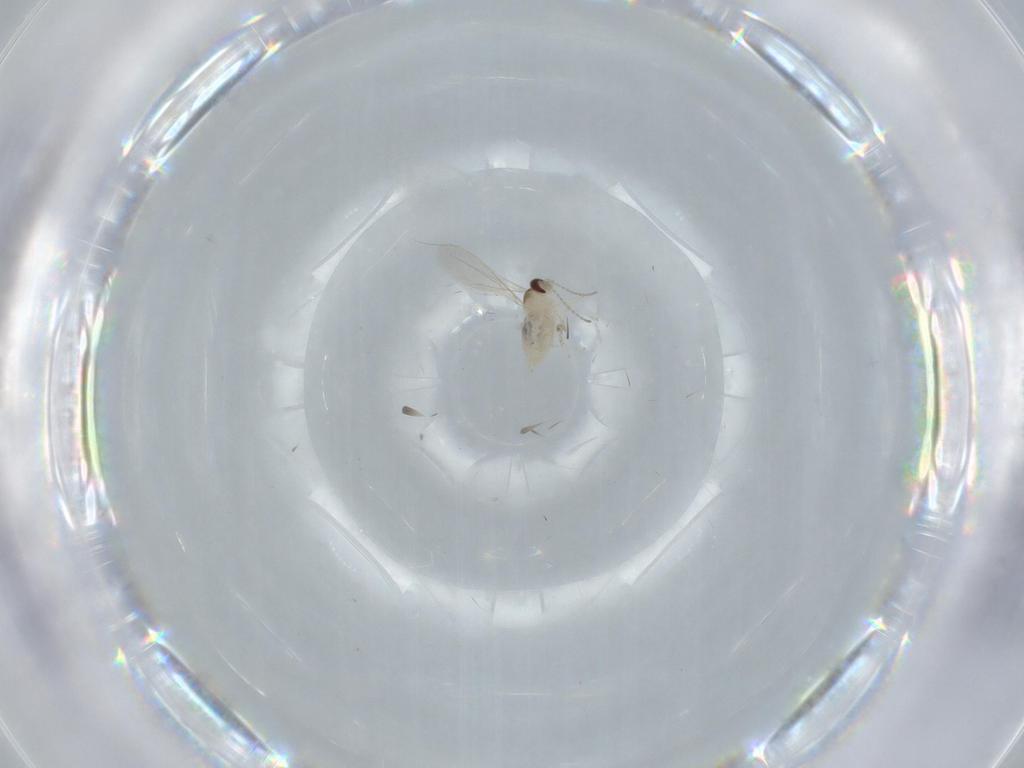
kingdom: Animalia
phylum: Arthropoda
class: Insecta
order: Diptera
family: Cecidomyiidae
